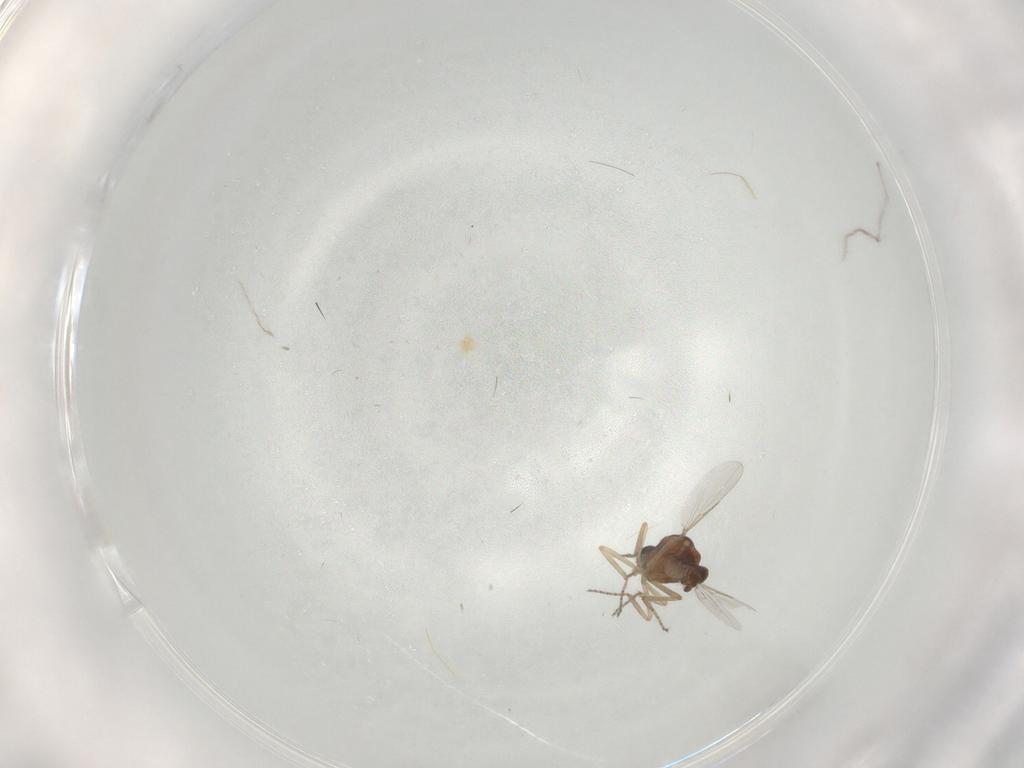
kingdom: Animalia
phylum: Arthropoda
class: Insecta
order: Diptera
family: Ceratopogonidae
